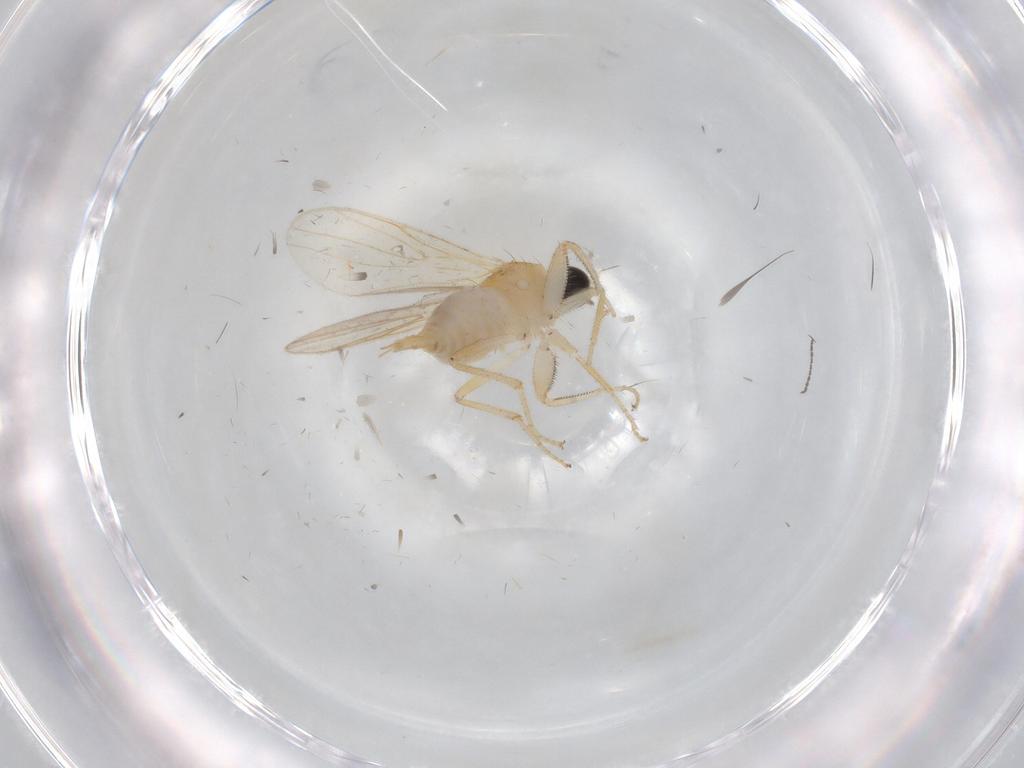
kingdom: Animalia
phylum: Arthropoda
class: Insecta
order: Diptera
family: Hybotidae
